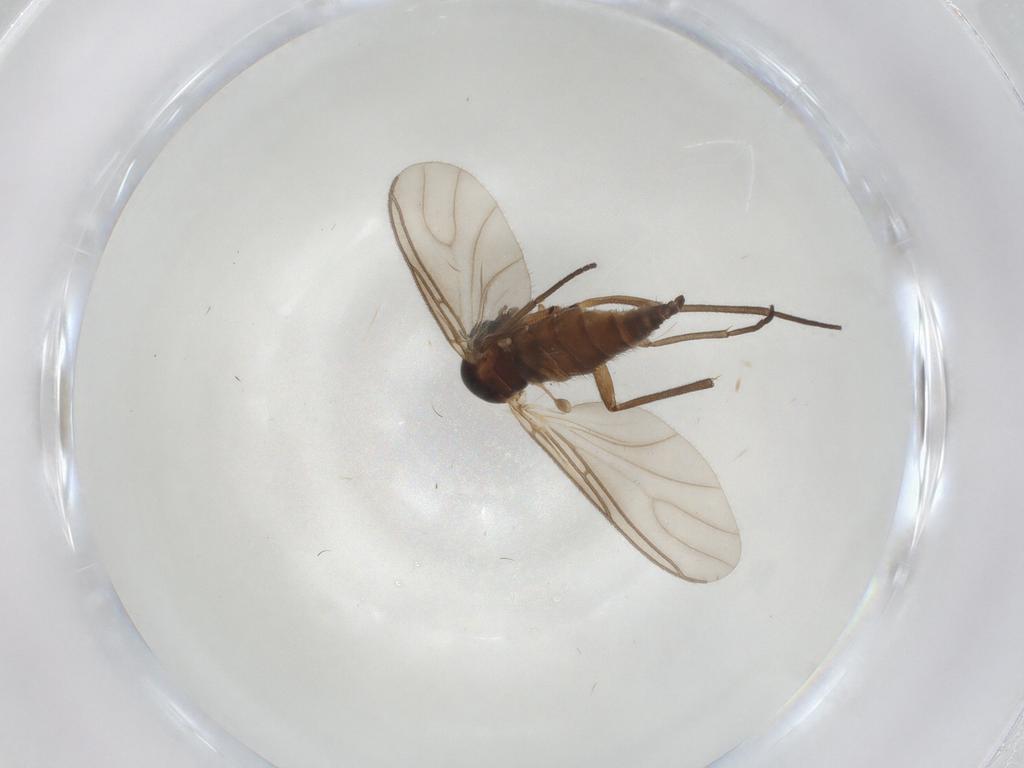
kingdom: Animalia
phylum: Arthropoda
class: Insecta
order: Diptera
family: Sciaridae
